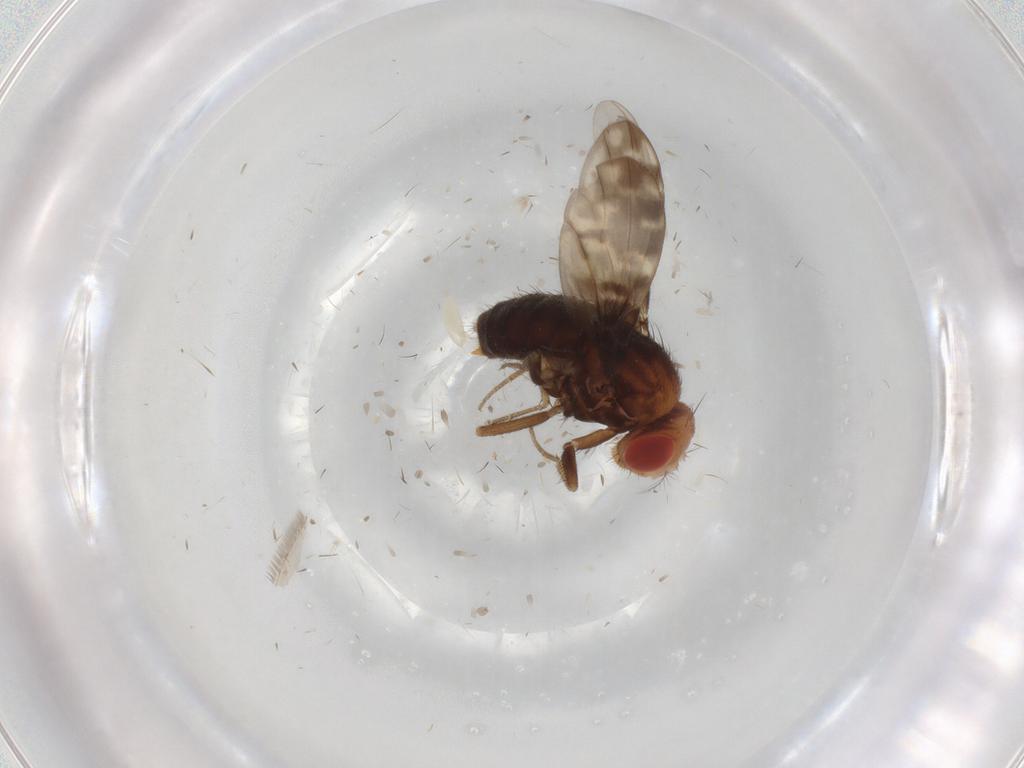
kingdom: Animalia
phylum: Arthropoda
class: Insecta
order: Diptera
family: Drosophilidae
